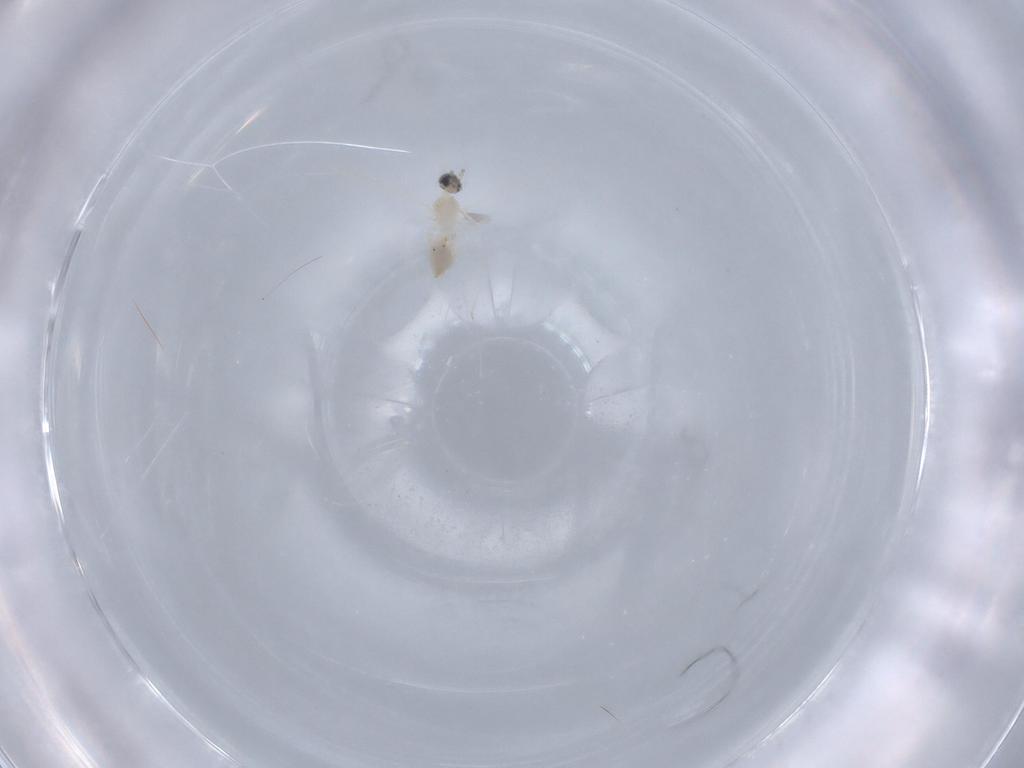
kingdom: Animalia
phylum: Arthropoda
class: Insecta
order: Diptera
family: Cecidomyiidae
